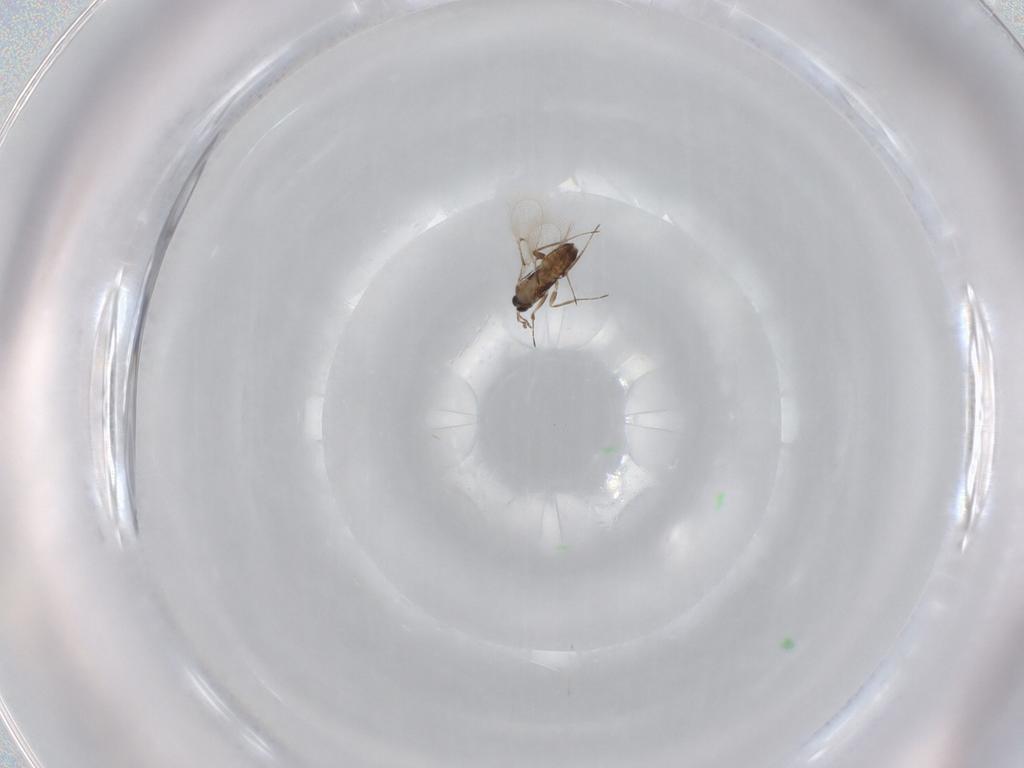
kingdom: Animalia
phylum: Arthropoda
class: Insecta
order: Hymenoptera
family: Trichogrammatidae
